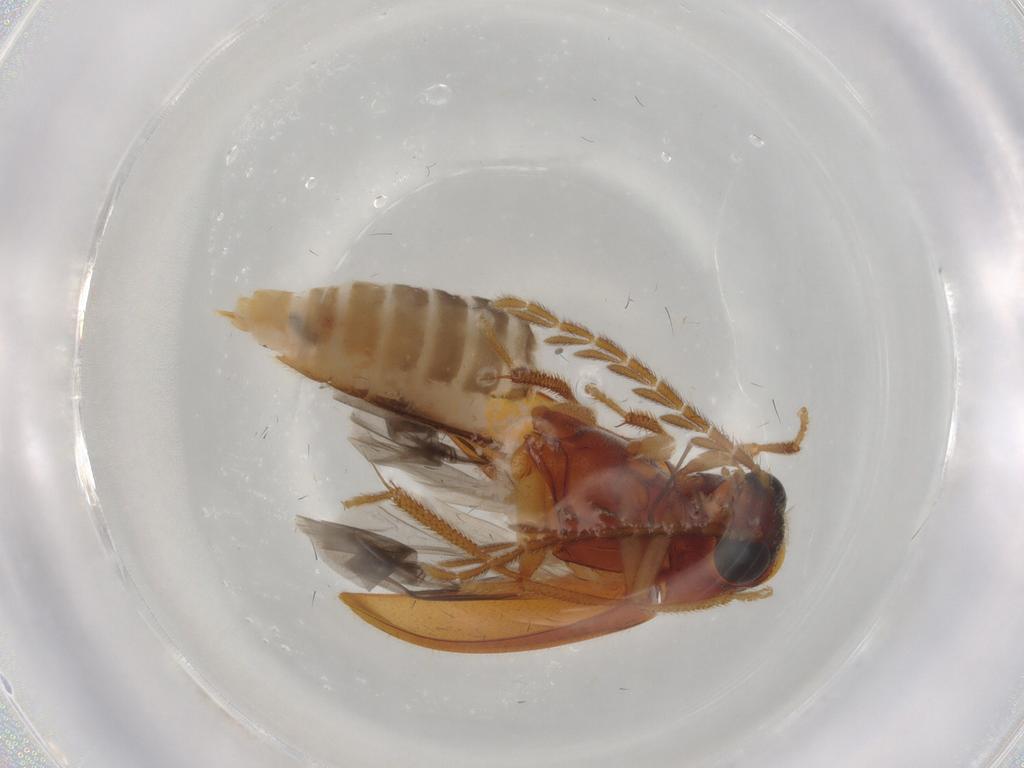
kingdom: Animalia
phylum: Arthropoda
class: Insecta
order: Coleoptera
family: Ptilodactylidae
